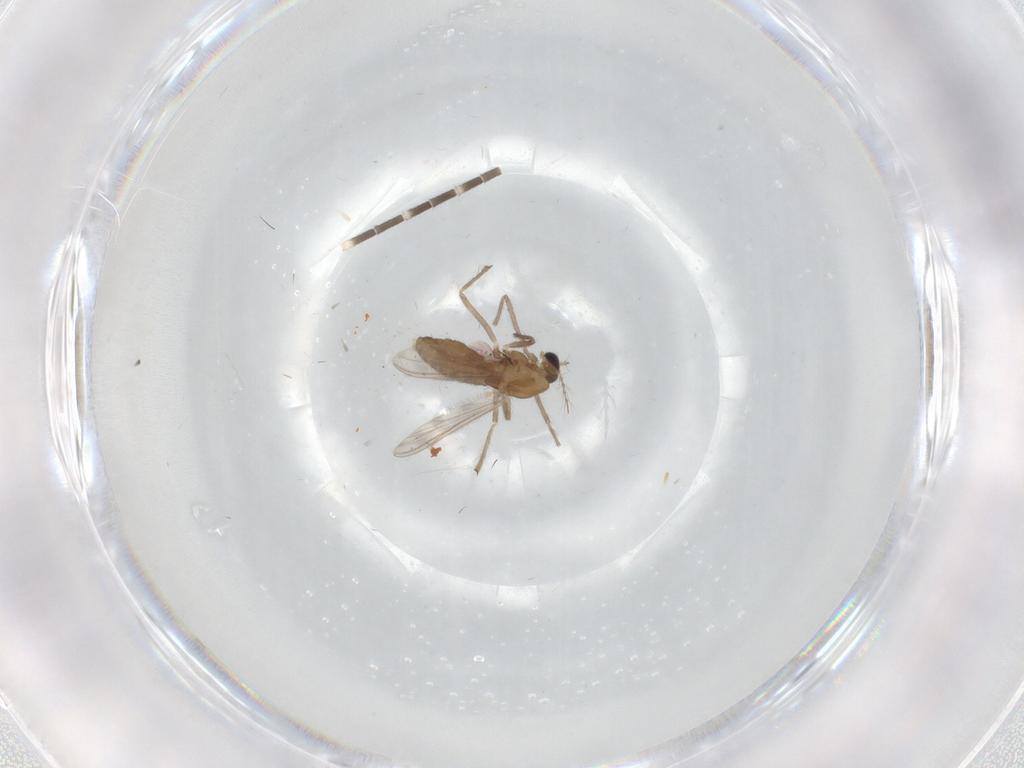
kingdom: Animalia
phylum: Arthropoda
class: Insecta
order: Diptera
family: Chironomidae
